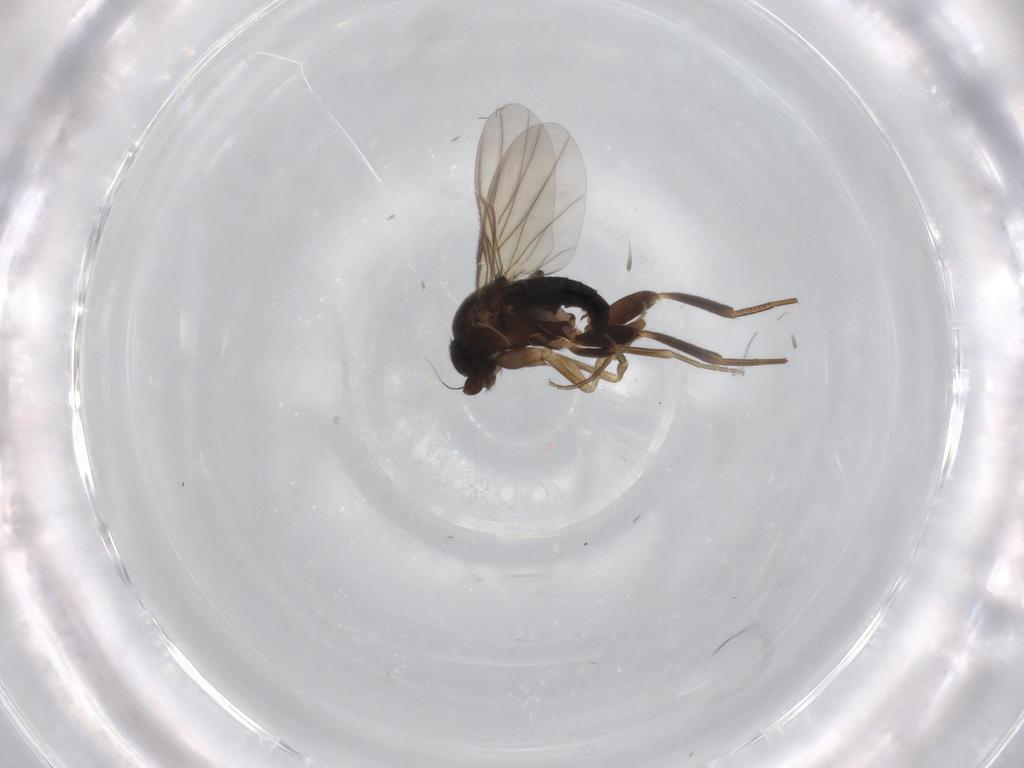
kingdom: Animalia
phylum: Arthropoda
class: Insecta
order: Diptera
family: Phoridae
